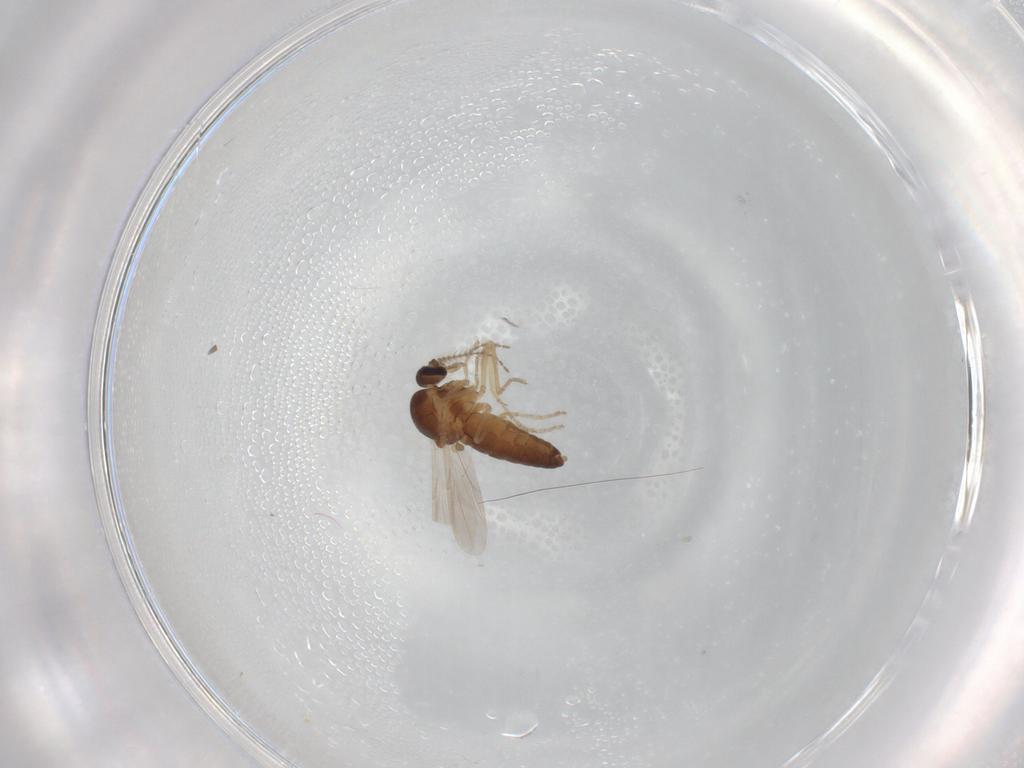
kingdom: Animalia
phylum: Arthropoda
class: Insecta
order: Diptera
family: Ceratopogonidae
